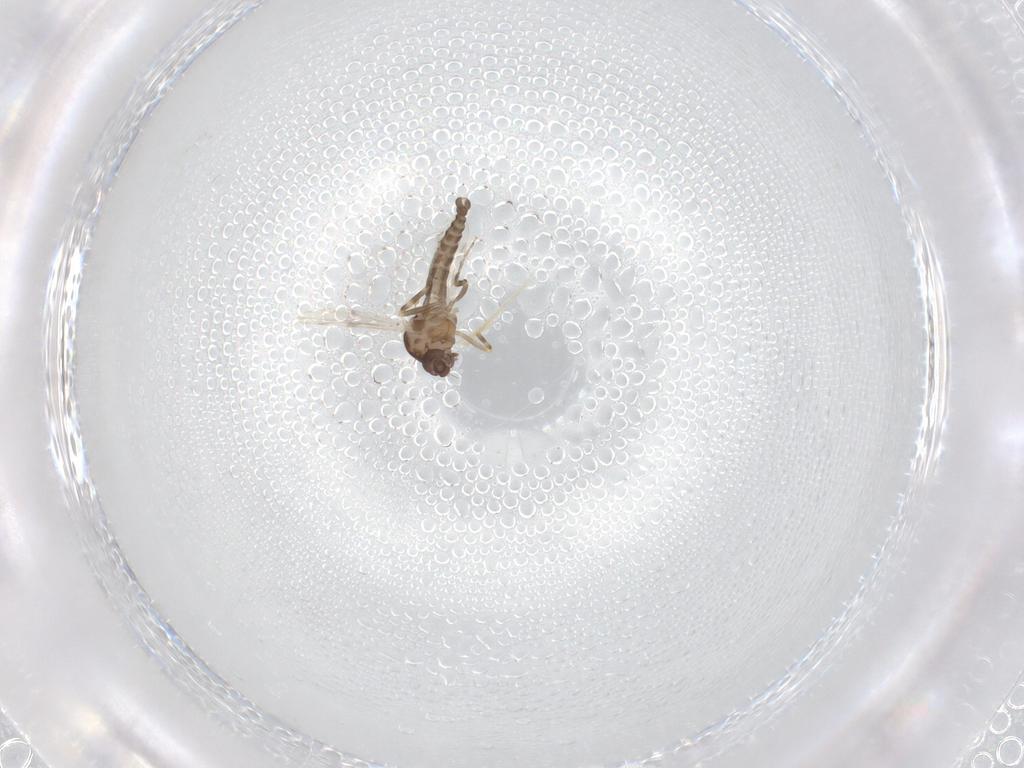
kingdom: Animalia
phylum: Arthropoda
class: Insecta
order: Diptera
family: Ceratopogonidae
